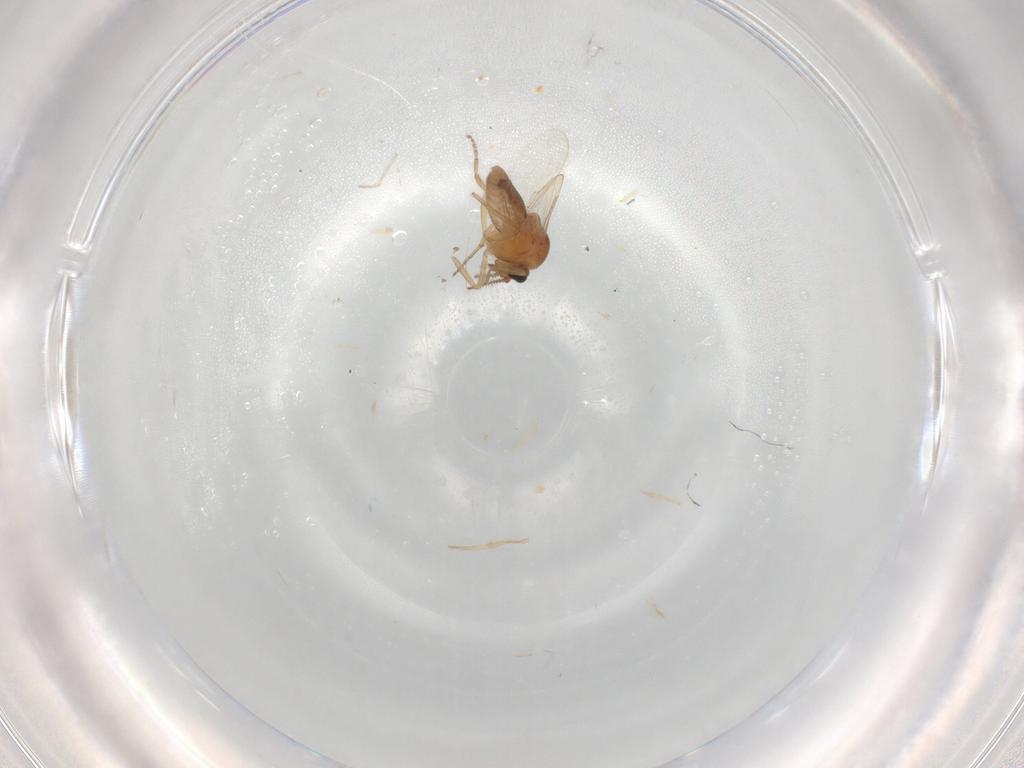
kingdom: Animalia
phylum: Arthropoda
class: Insecta
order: Diptera
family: Ceratopogonidae
